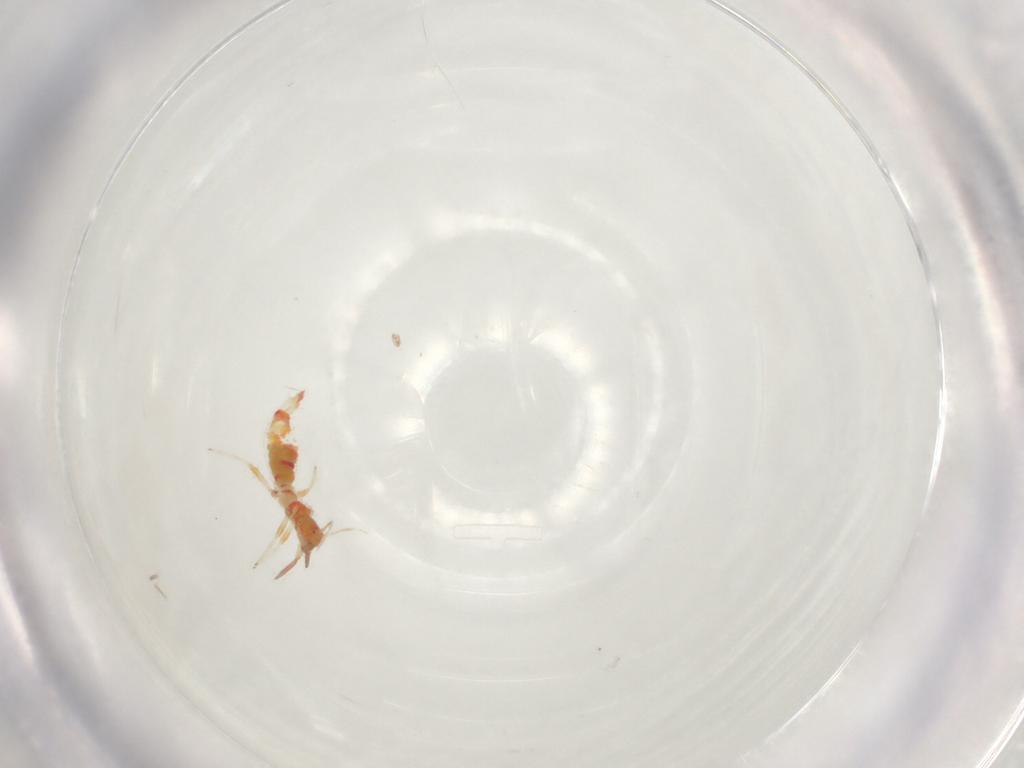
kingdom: Animalia
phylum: Arthropoda
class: Insecta
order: Thysanoptera
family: Aeolothripidae
